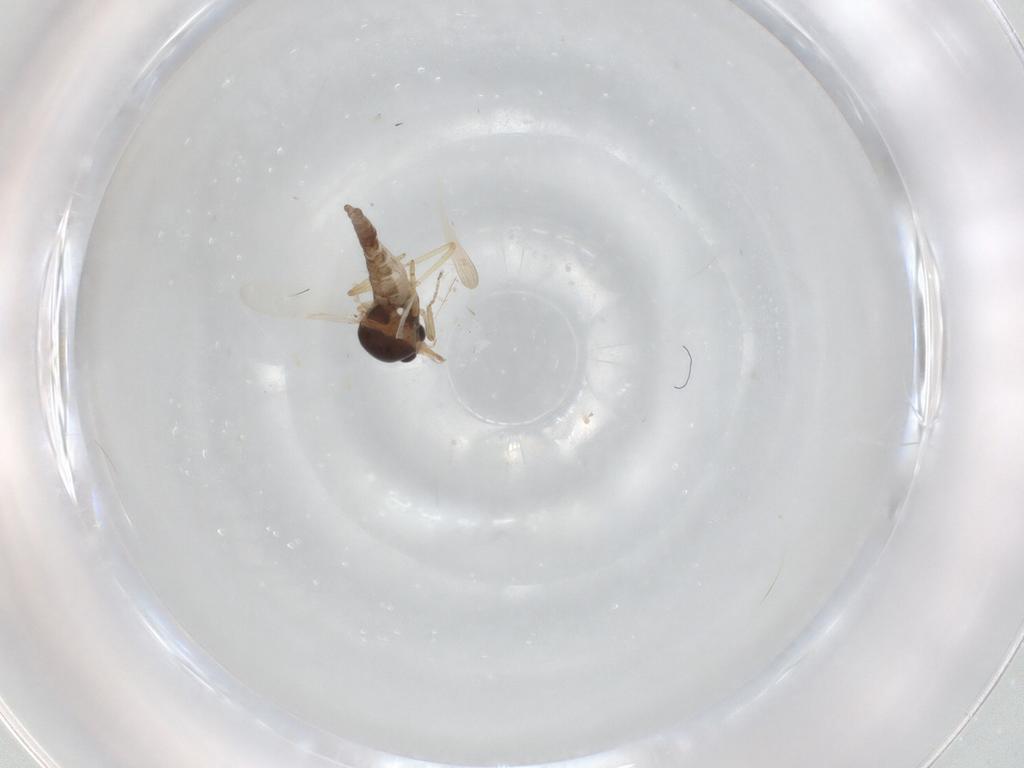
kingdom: Animalia
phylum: Arthropoda
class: Insecta
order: Diptera
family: Ceratopogonidae
